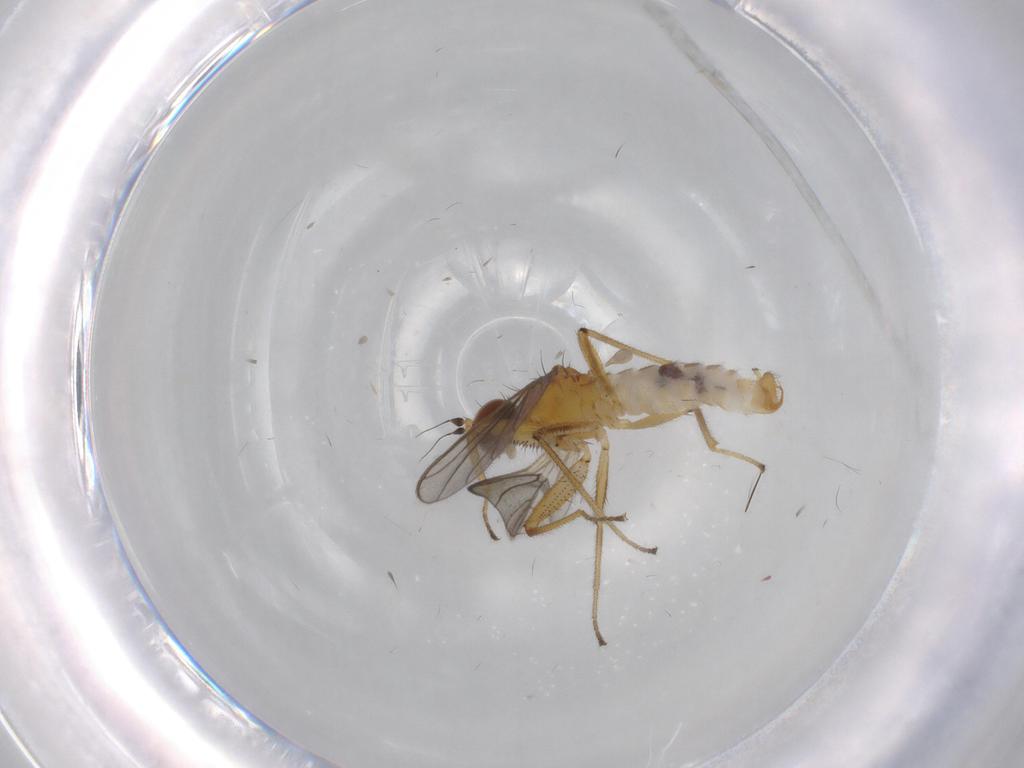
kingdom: Animalia
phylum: Arthropoda
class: Insecta
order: Diptera
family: Empididae
